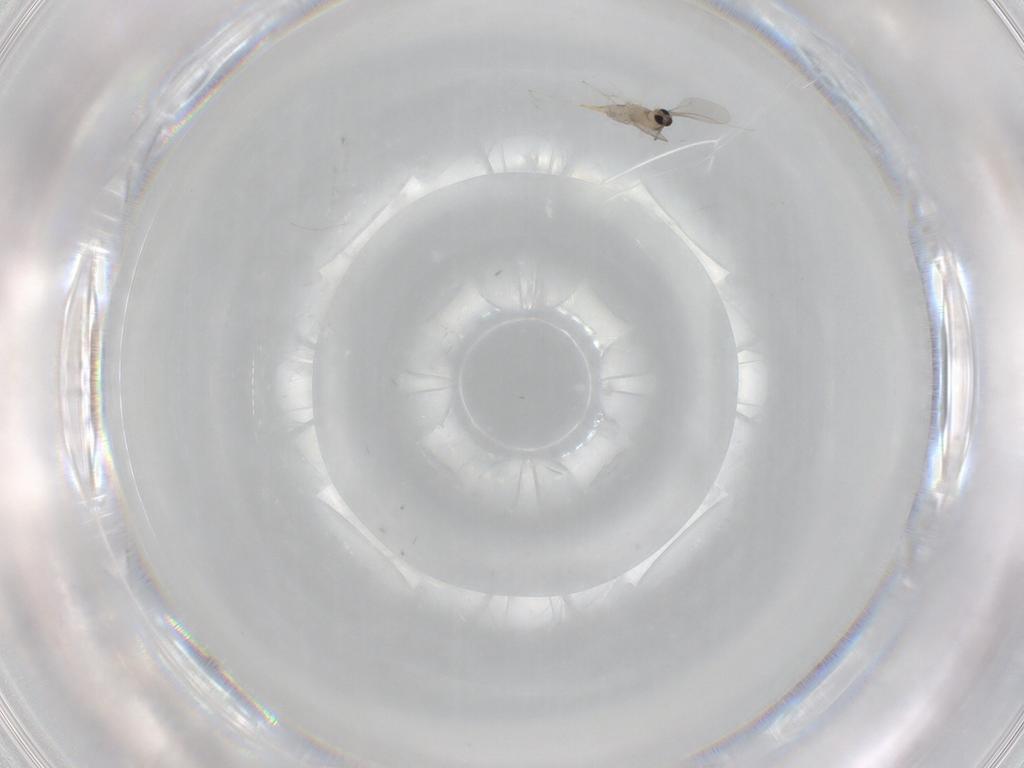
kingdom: Animalia
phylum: Arthropoda
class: Insecta
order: Diptera
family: Cecidomyiidae
